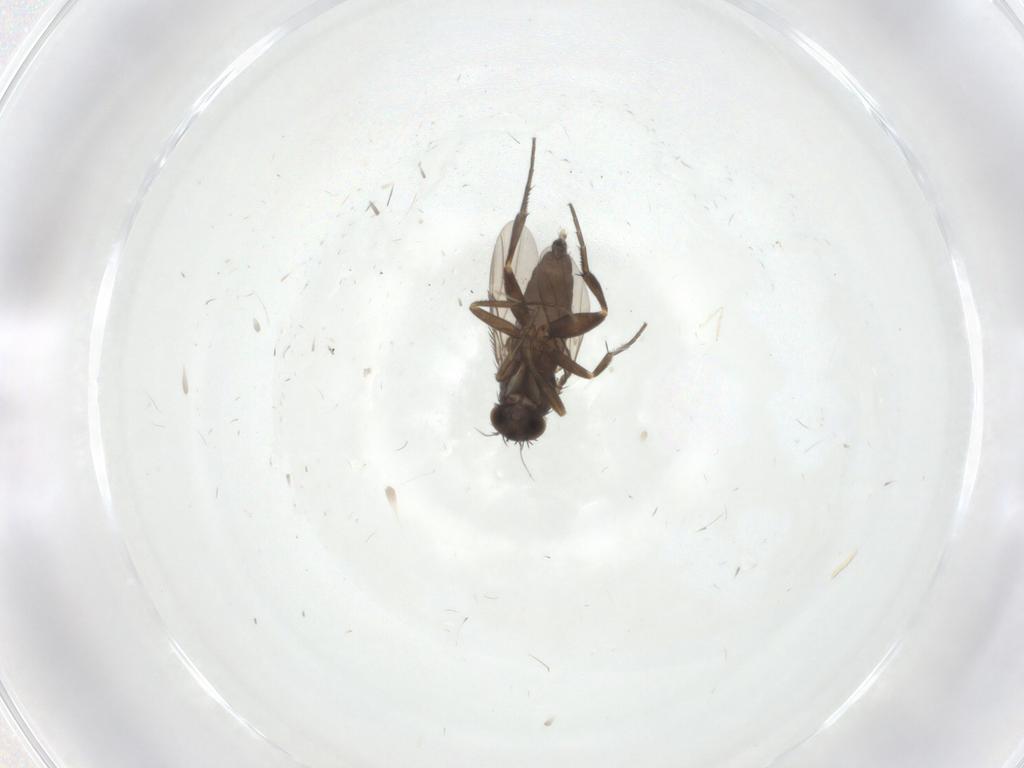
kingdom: Animalia
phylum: Arthropoda
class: Insecta
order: Diptera
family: Phoridae
